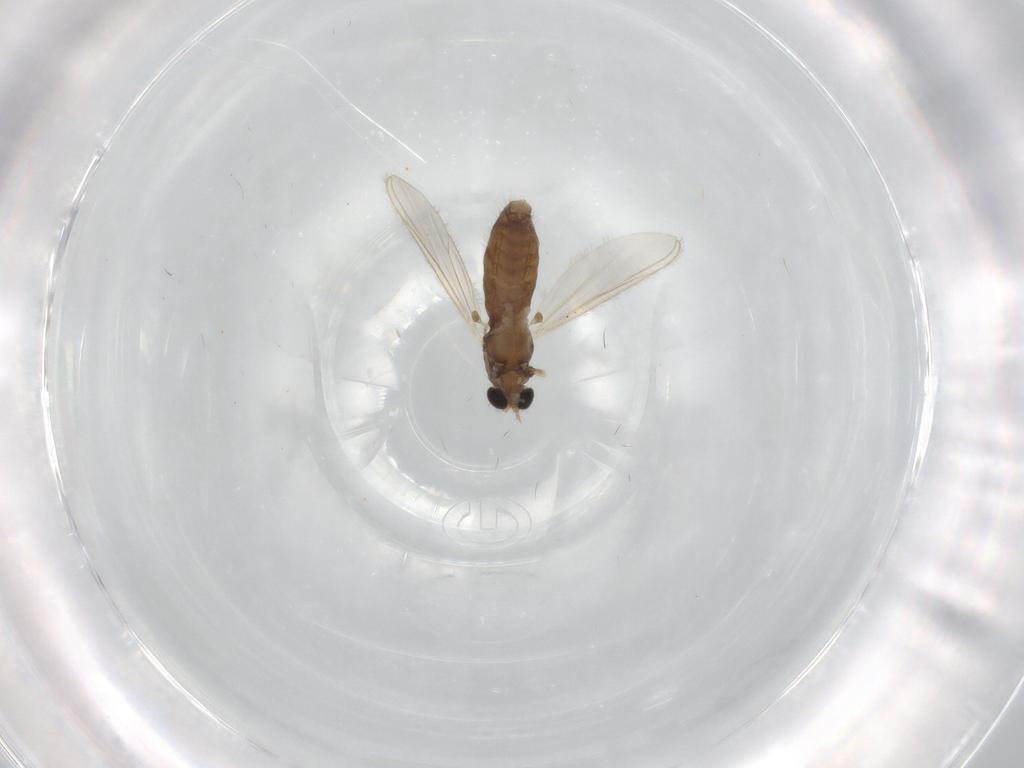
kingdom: Animalia
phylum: Arthropoda
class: Insecta
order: Diptera
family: Chironomidae
